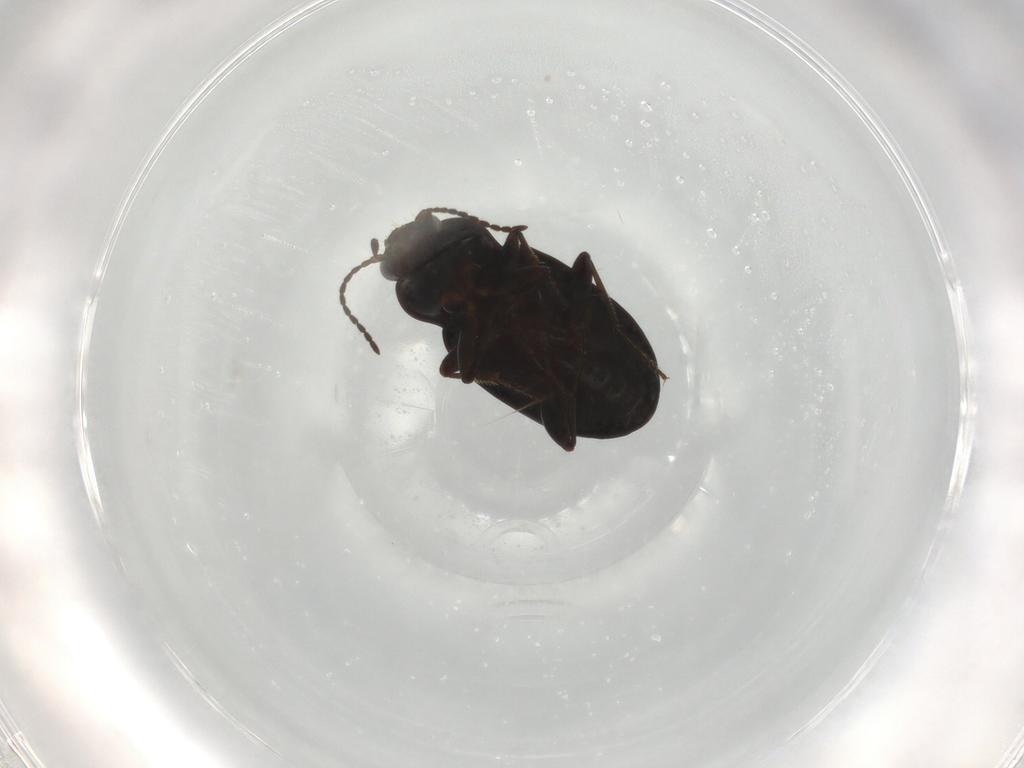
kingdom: Animalia
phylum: Arthropoda
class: Insecta
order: Coleoptera
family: Carabidae
